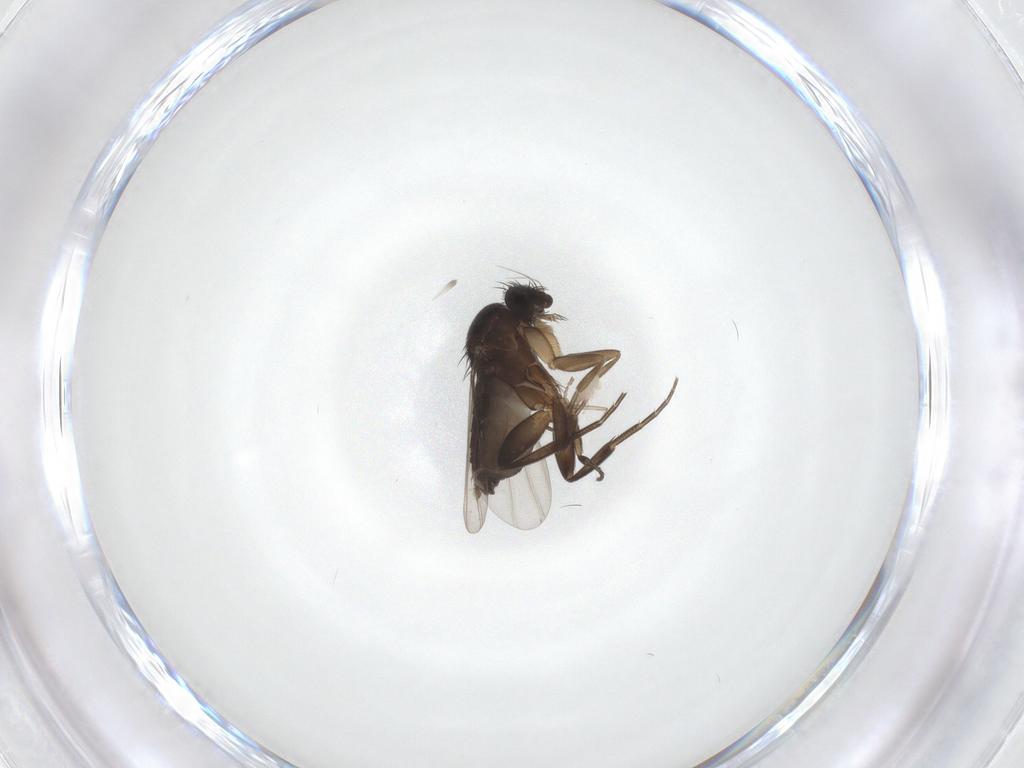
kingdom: Animalia
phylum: Arthropoda
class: Insecta
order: Diptera
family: Phoridae
